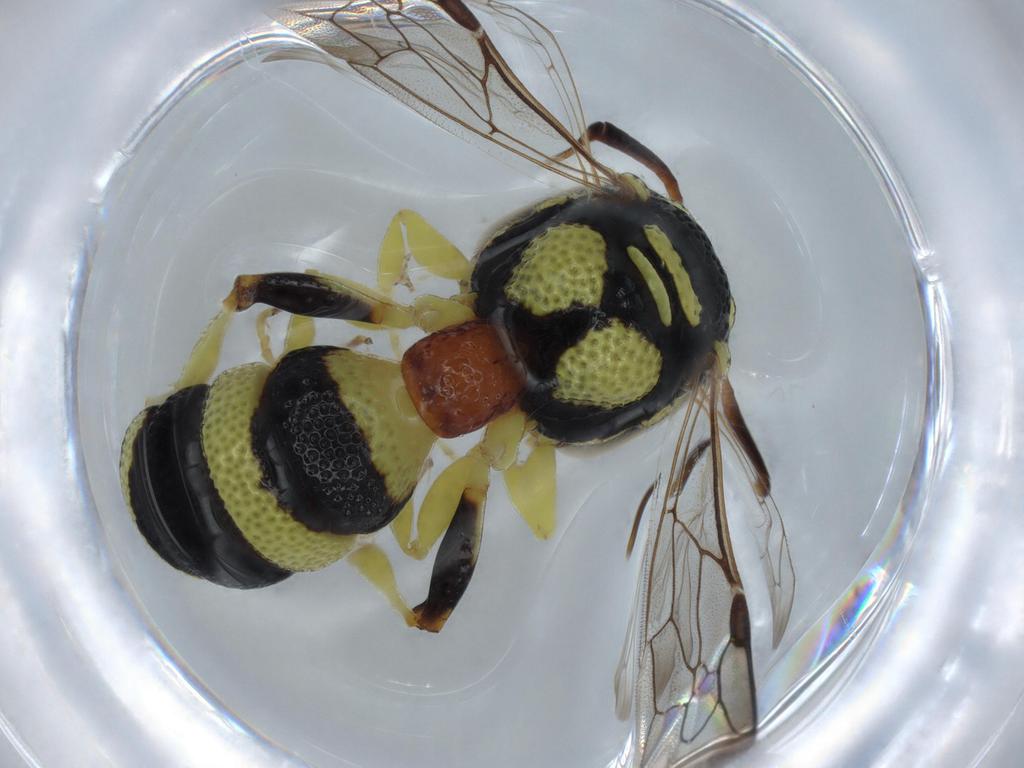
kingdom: Animalia
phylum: Arthropoda
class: Insecta
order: Hymenoptera
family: Philanthidae
